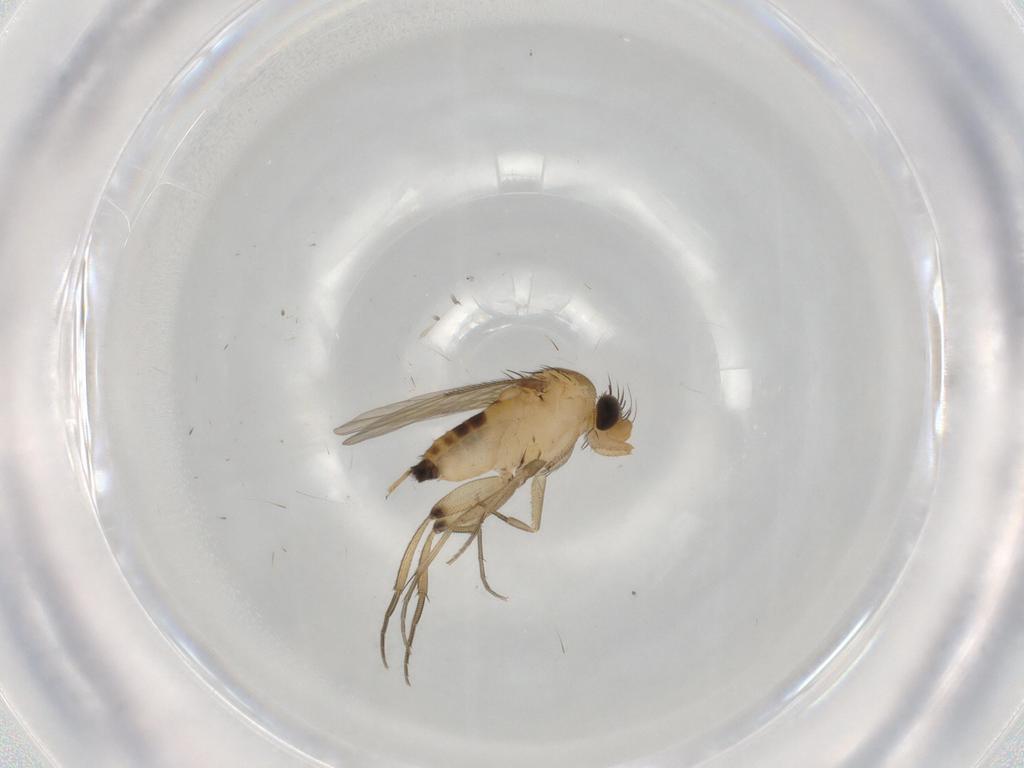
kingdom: Animalia
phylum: Arthropoda
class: Insecta
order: Diptera
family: Phoridae
